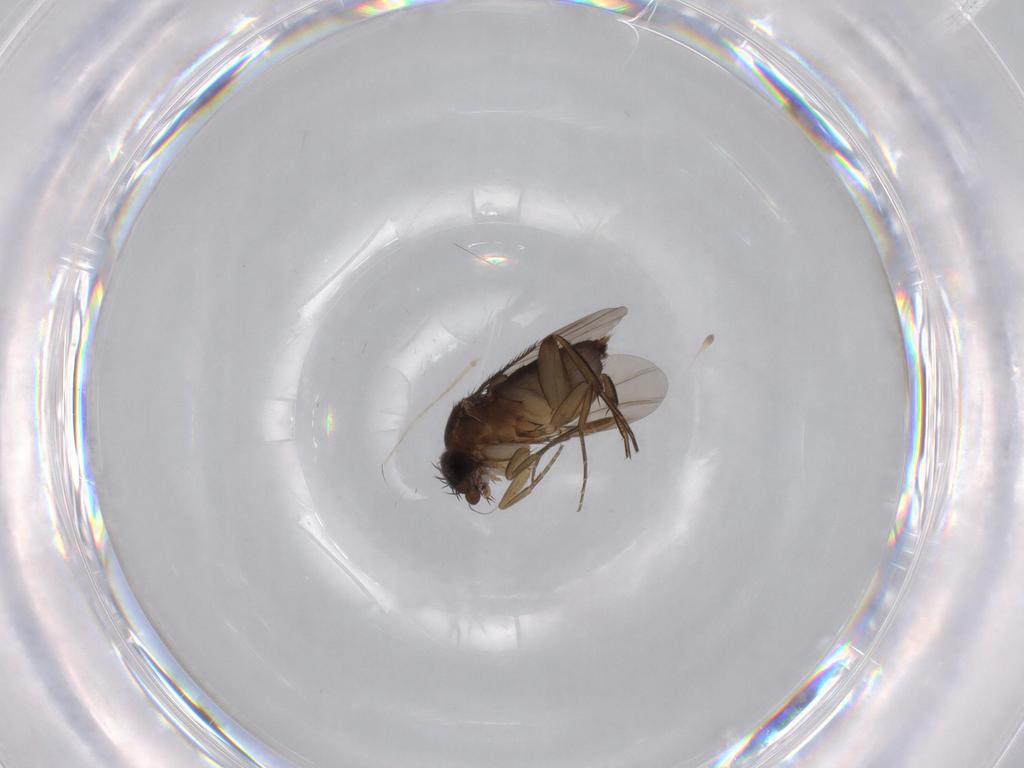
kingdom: Animalia
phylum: Arthropoda
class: Insecta
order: Diptera
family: Phoridae
